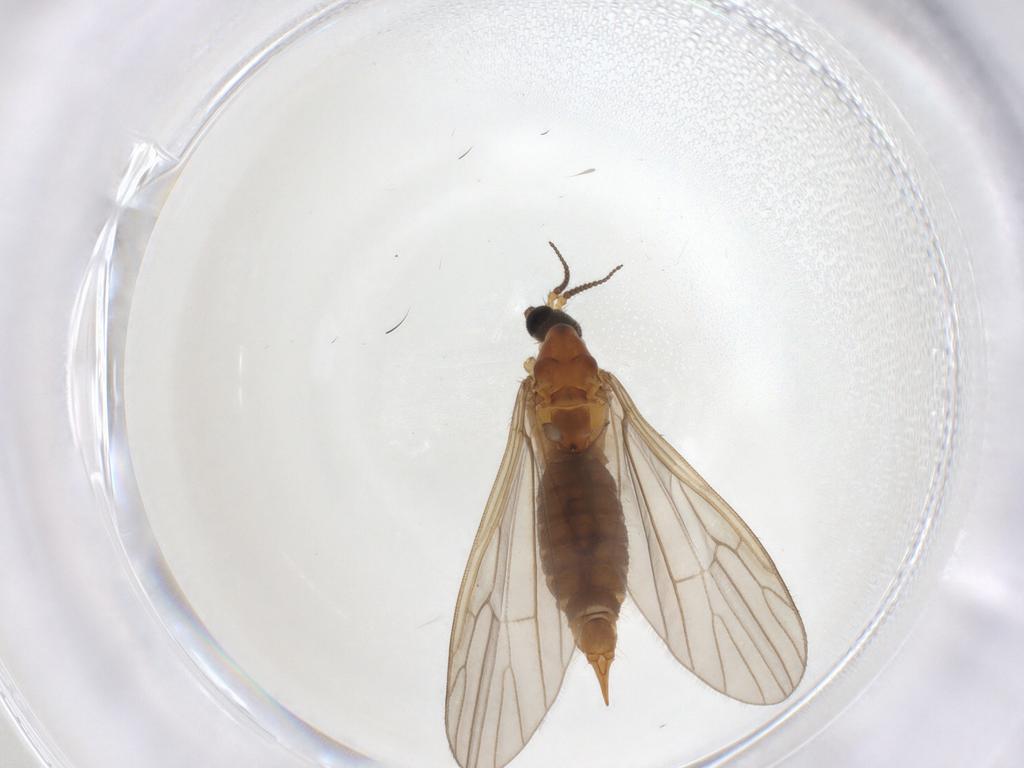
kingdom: Animalia
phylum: Arthropoda
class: Insecta
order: Diptera
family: Limoniidae
